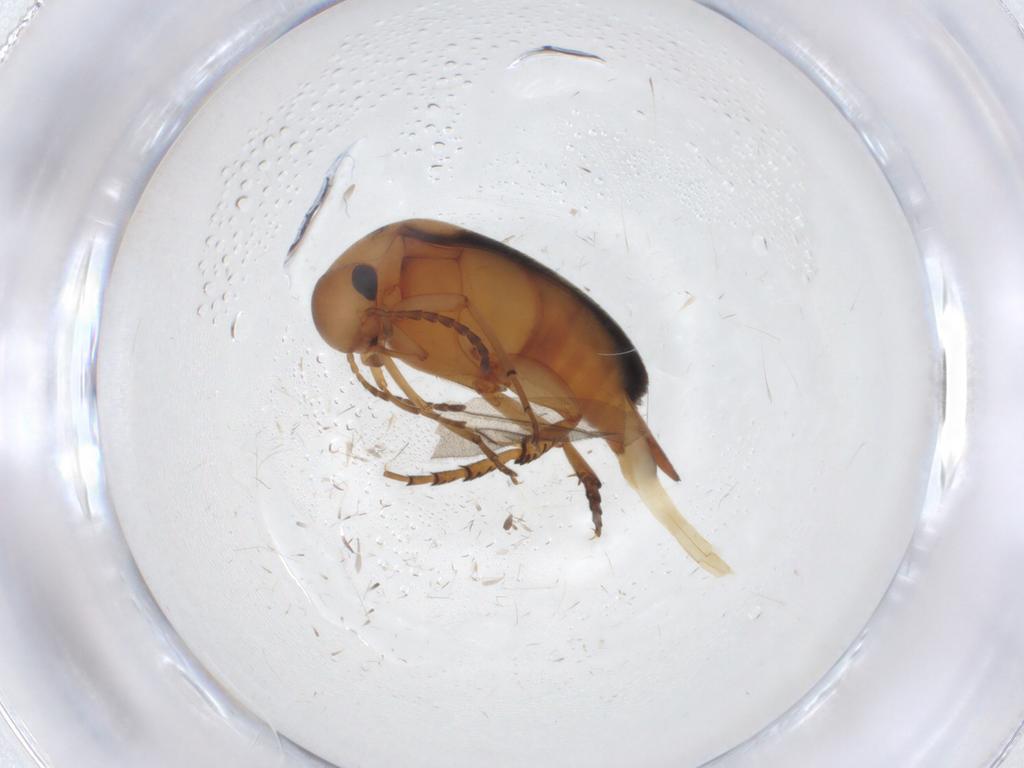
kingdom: Animalia
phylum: Arthropoda
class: Insecta
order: Coleoptera
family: Mordellidae
